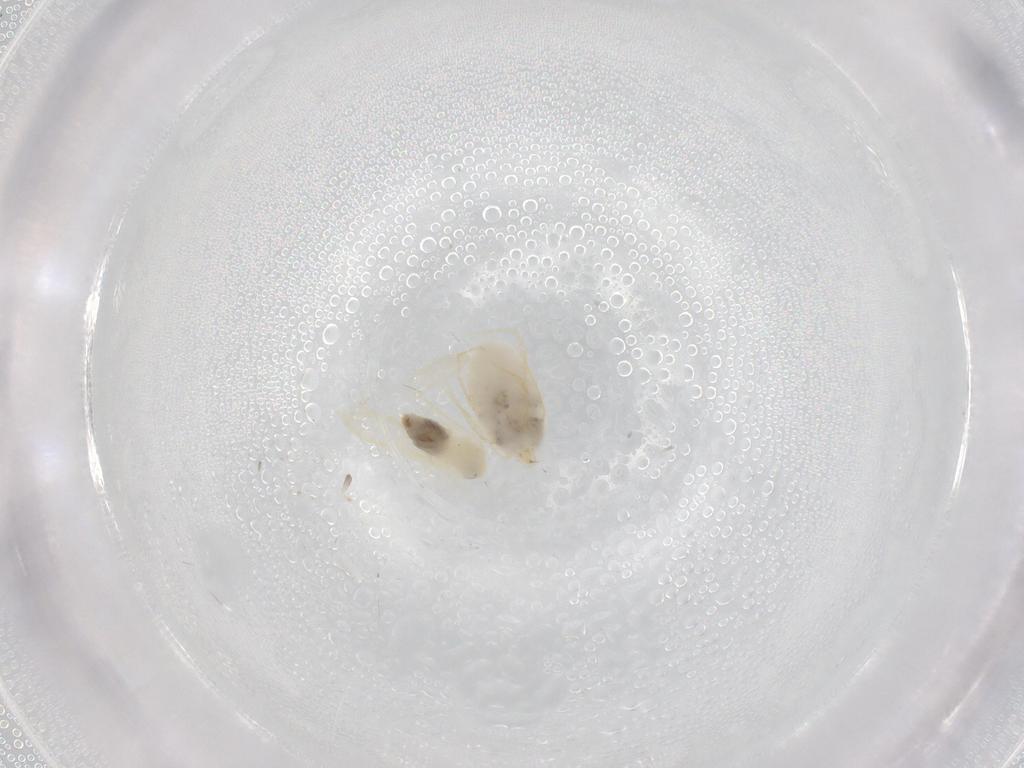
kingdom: Animalia
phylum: Arthropoda
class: Insecta
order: Hemiptera
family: Aleyrodidae
